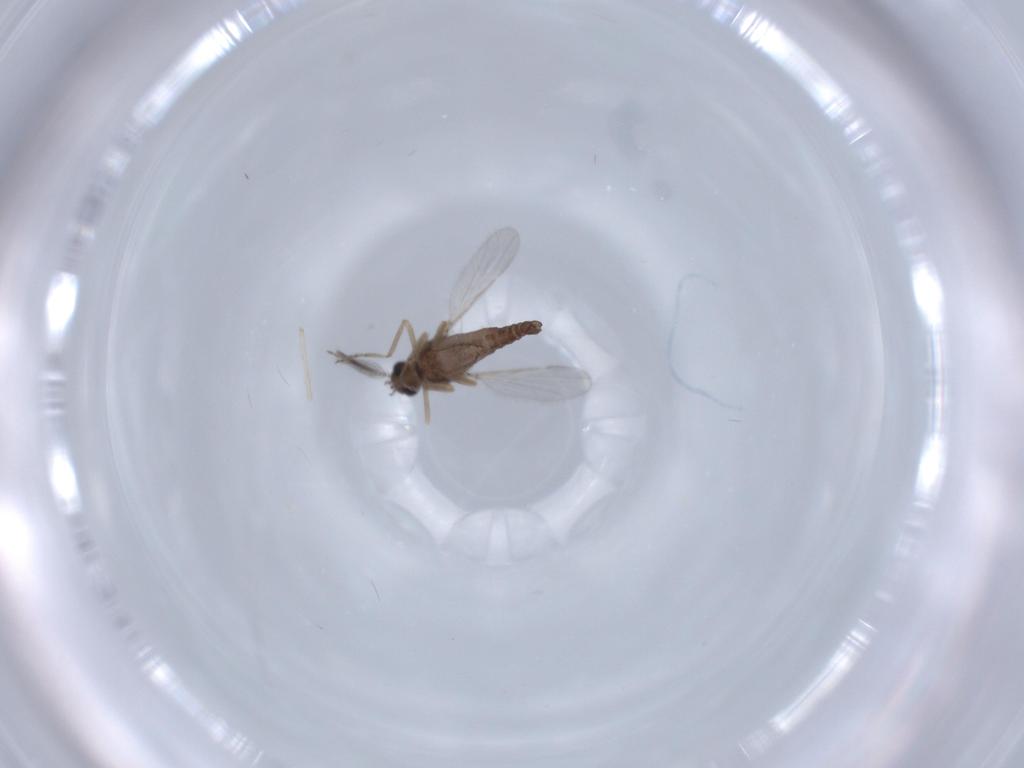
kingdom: Animalia
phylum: Arthropoda
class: Insecta
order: Diptera
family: Ceratopogonidae
